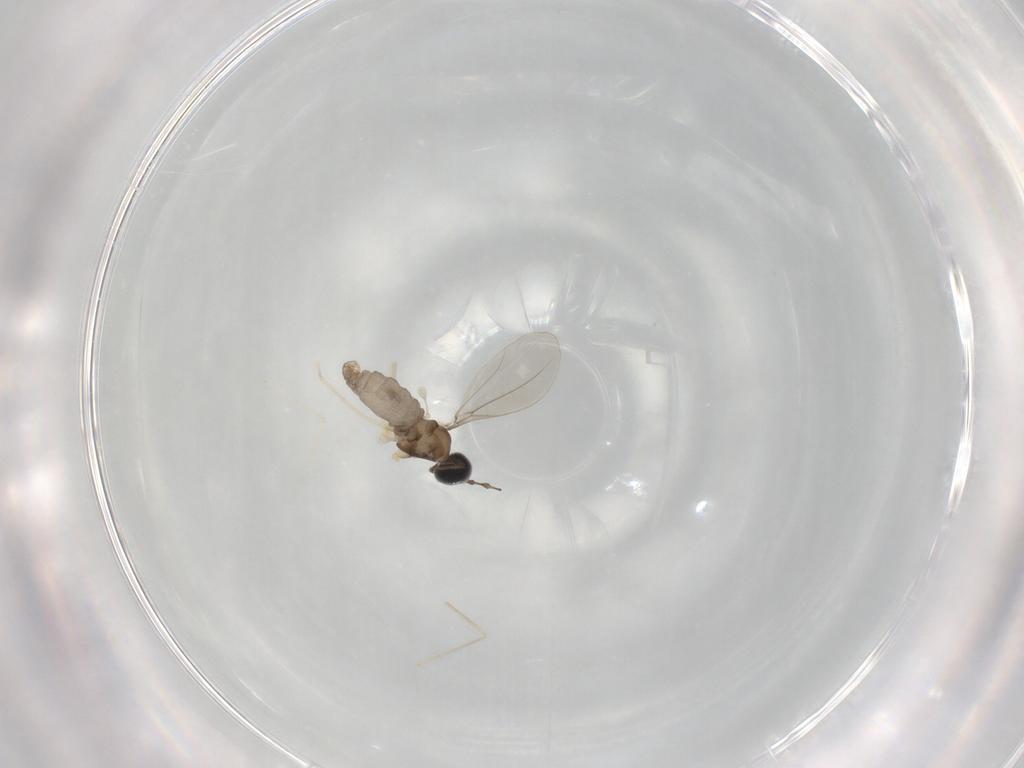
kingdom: Animalia
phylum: Arthropoda
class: Insecta
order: Diptera
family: Cecidomyiidae
